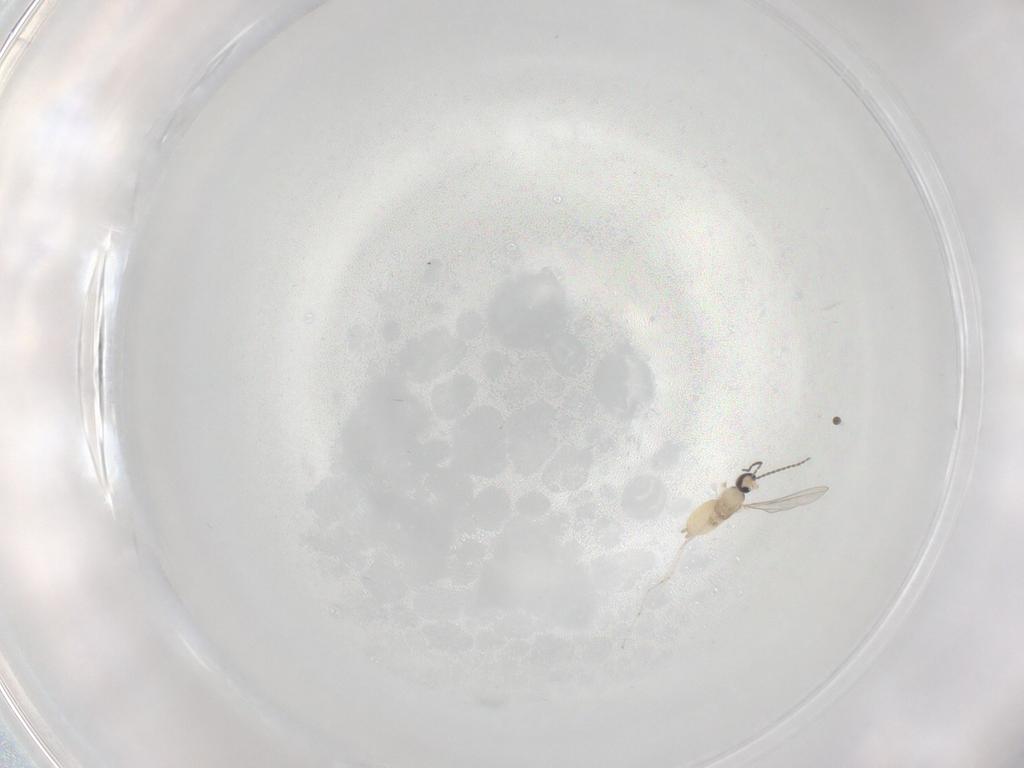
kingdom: Animalia
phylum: Arthropoda
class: Insecta
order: Diptera
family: Cecidomyiidae
